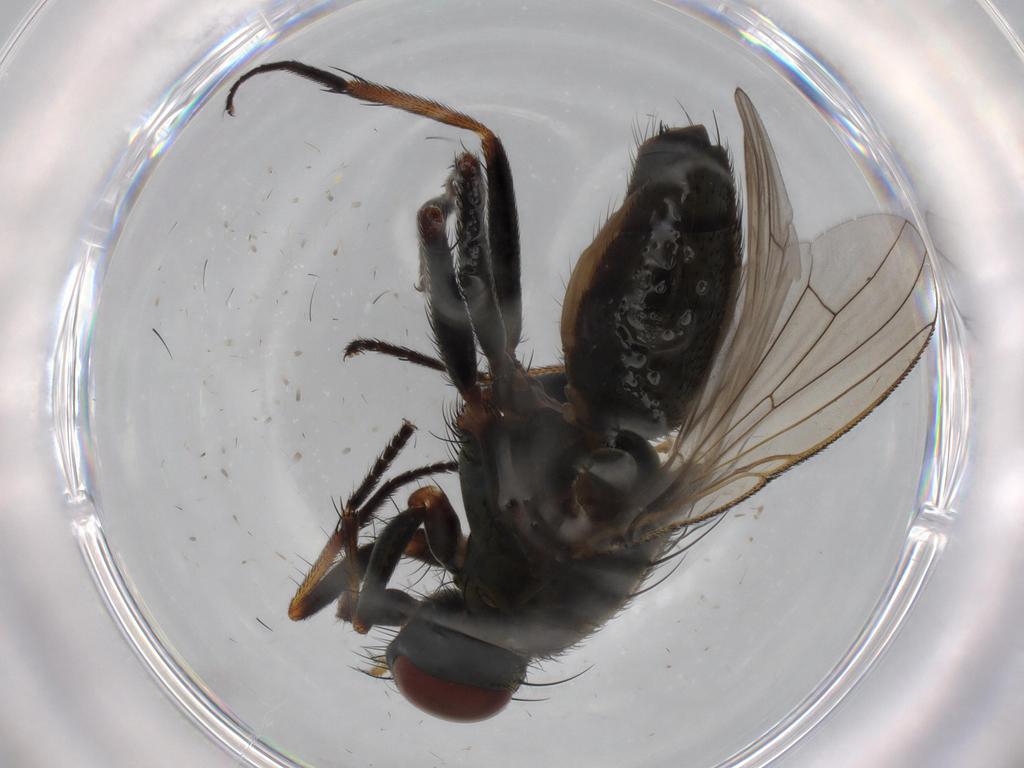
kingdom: Animalia
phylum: Arthropoda
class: Insecta
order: Diptera
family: Muscidae
